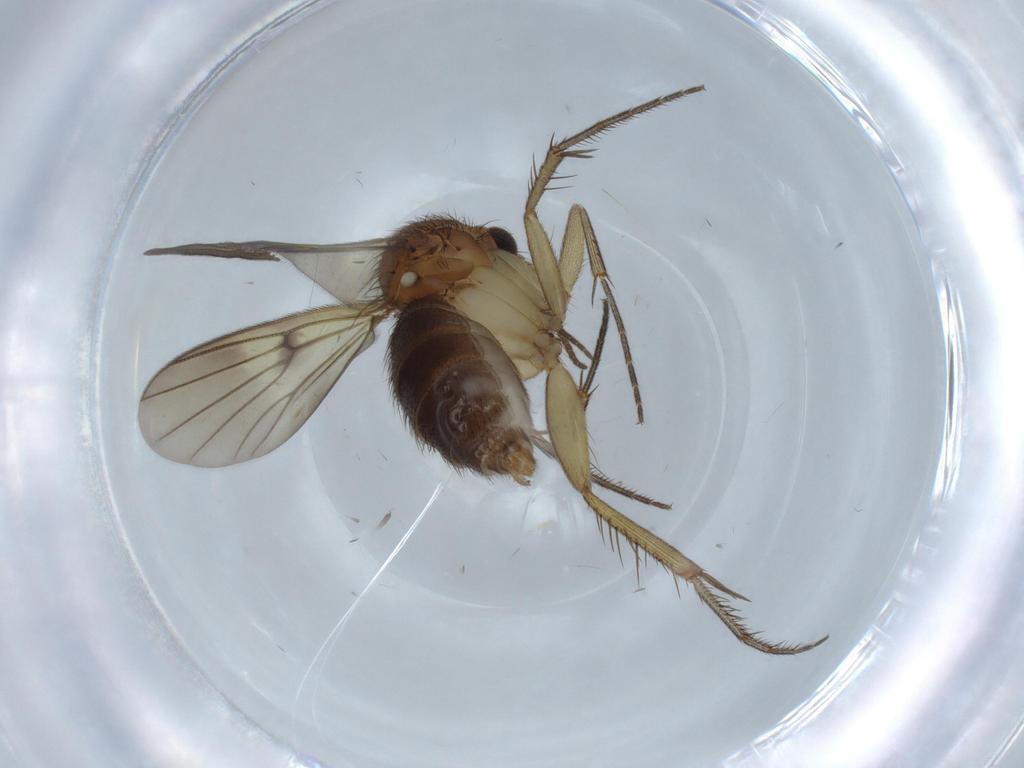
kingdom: Animalia
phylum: Arthropoda
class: Insecta
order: Diptera
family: Mycetophilidae
